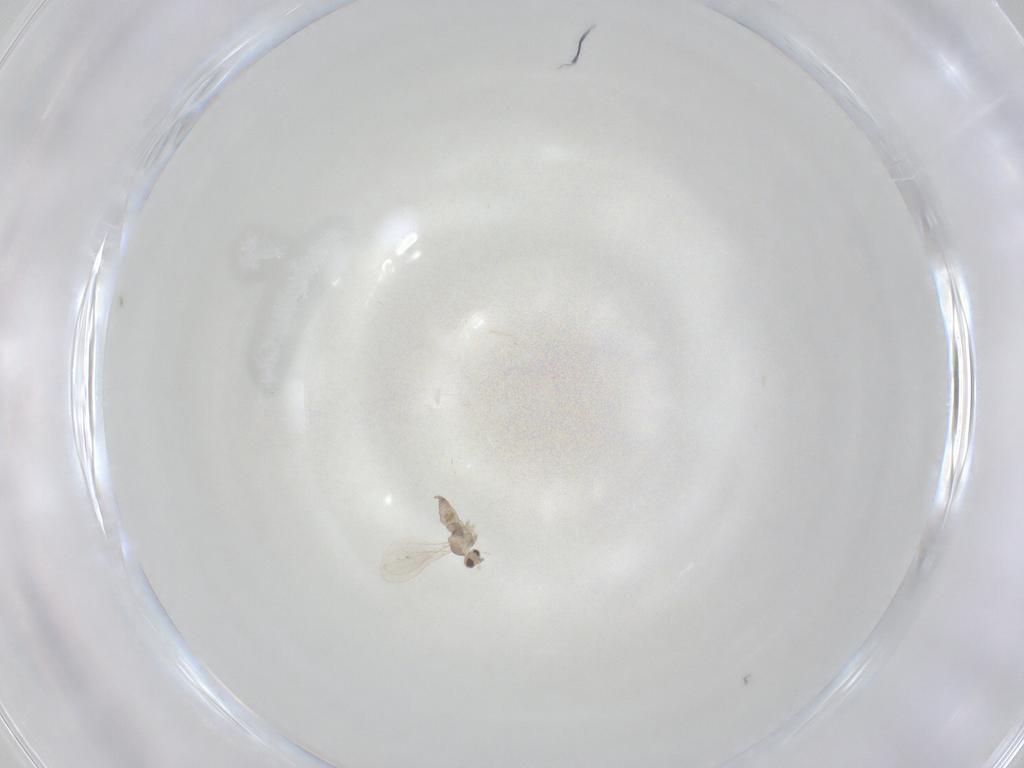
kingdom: Animalia
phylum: Arthropoda
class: Insecta
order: Diptera
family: Cecidomyiidae
